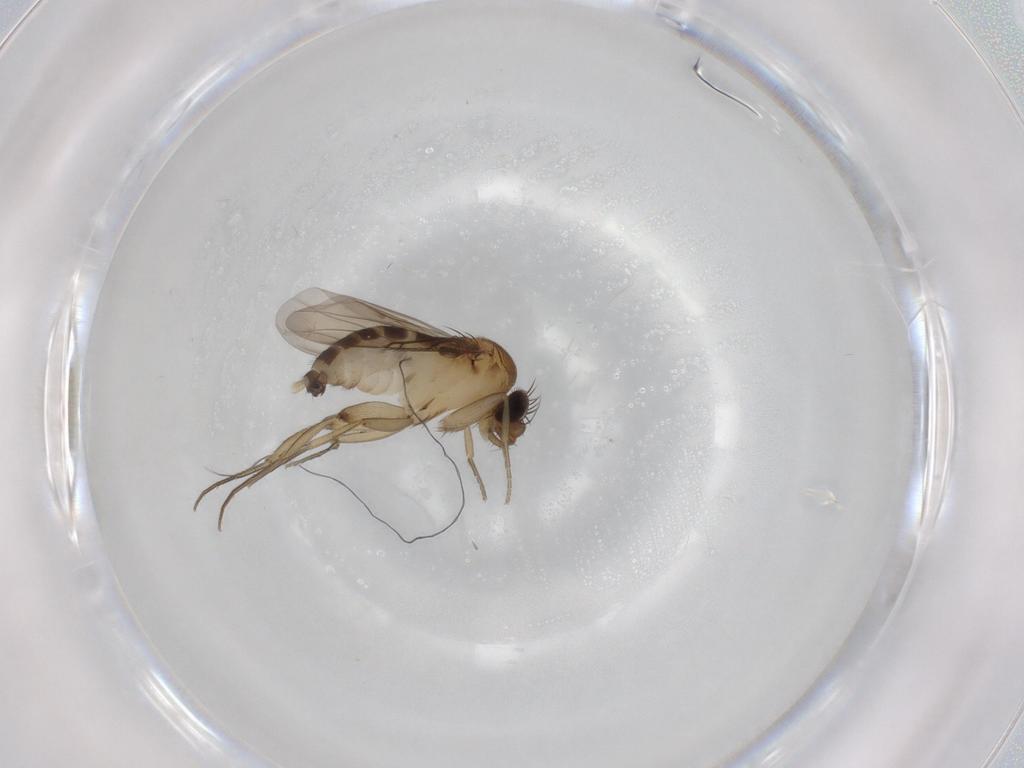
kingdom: Animalia
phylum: Arthropoda
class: Insecta
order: Diptera
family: Phoridae
